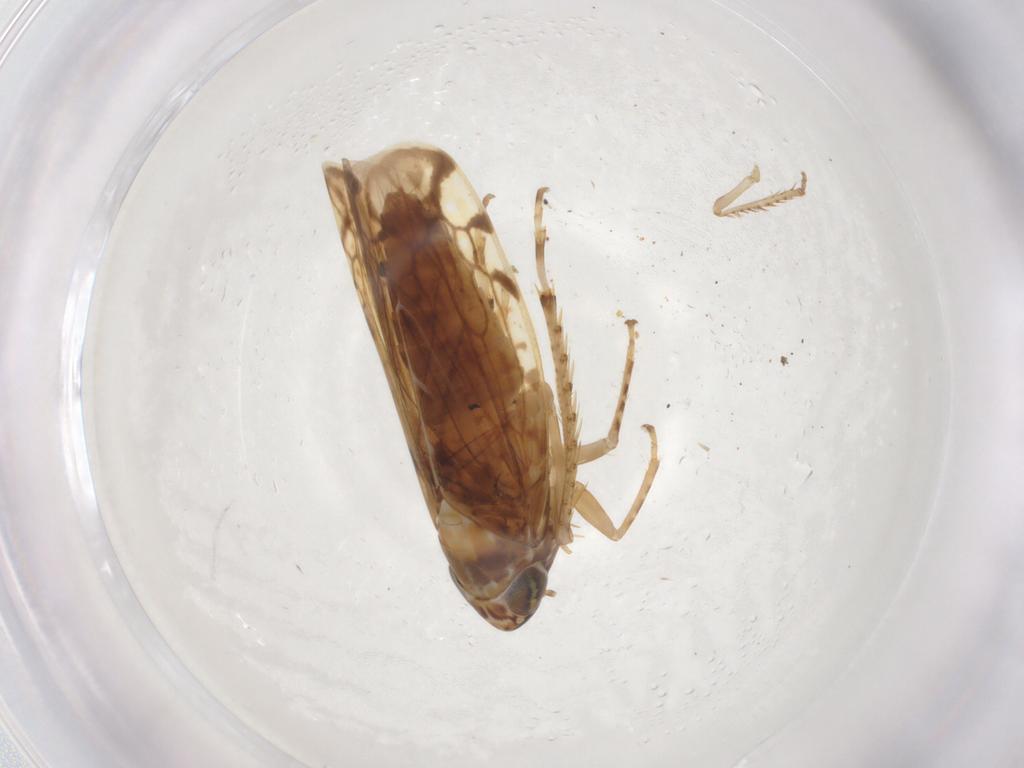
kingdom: Animalia
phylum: Arthropoda
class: Insecta
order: Hemiptera
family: Cicadellidae
